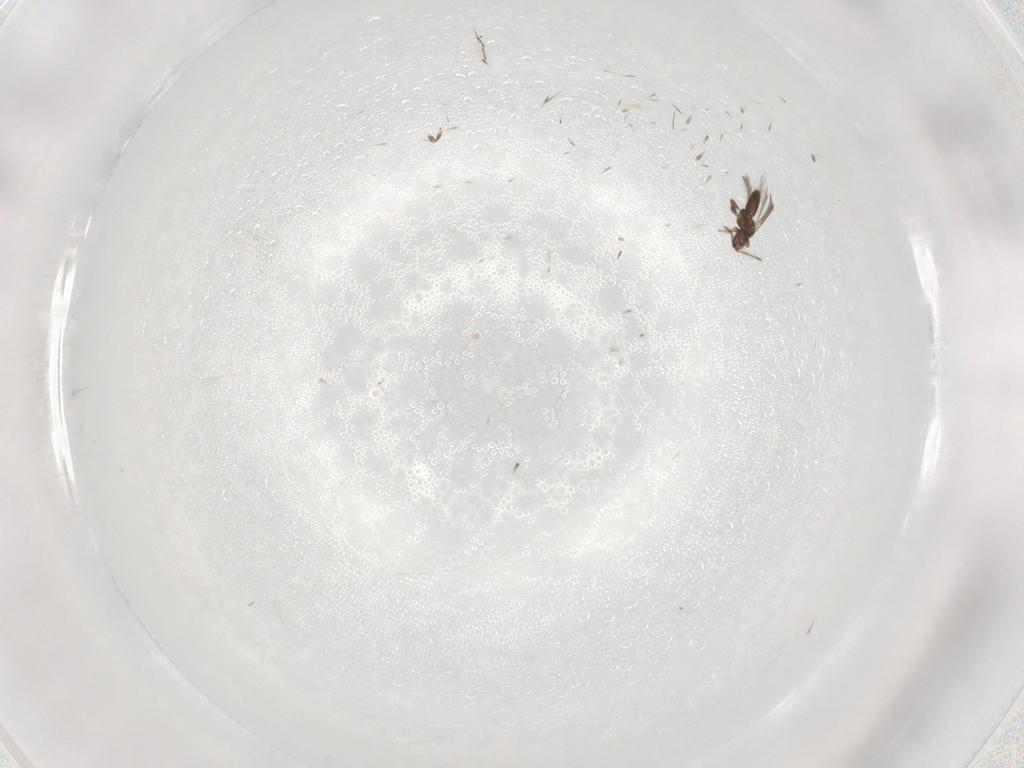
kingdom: Animalia
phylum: Arthropoda
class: Insecta
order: Thysanoptera
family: Thripidae
